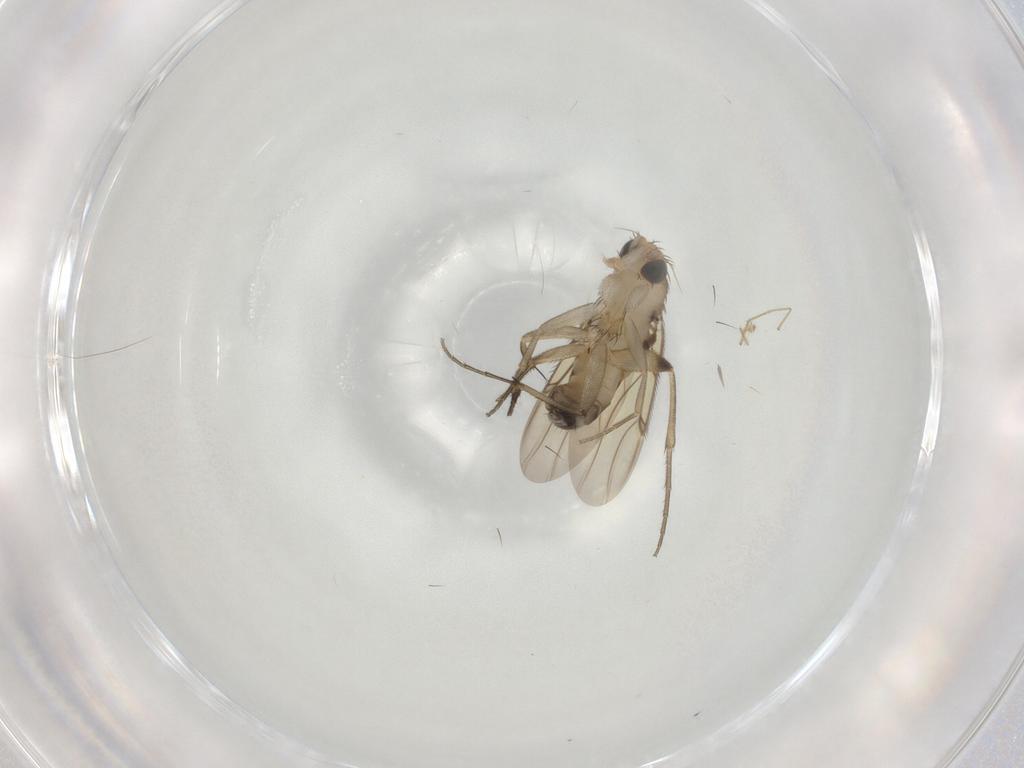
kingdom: Animalia
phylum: Arthropoda
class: Insecta
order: Diptera
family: Phoridae
